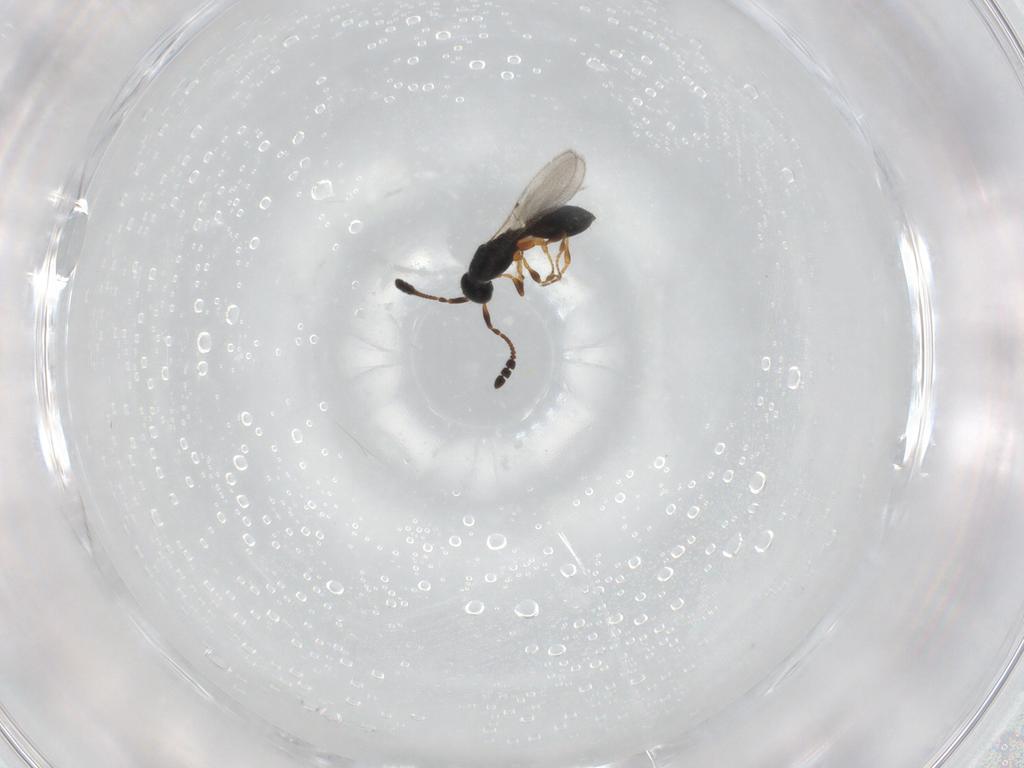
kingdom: Animalia
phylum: Arthropoda
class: Insecta
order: Hymenoptera
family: Diapriidae
